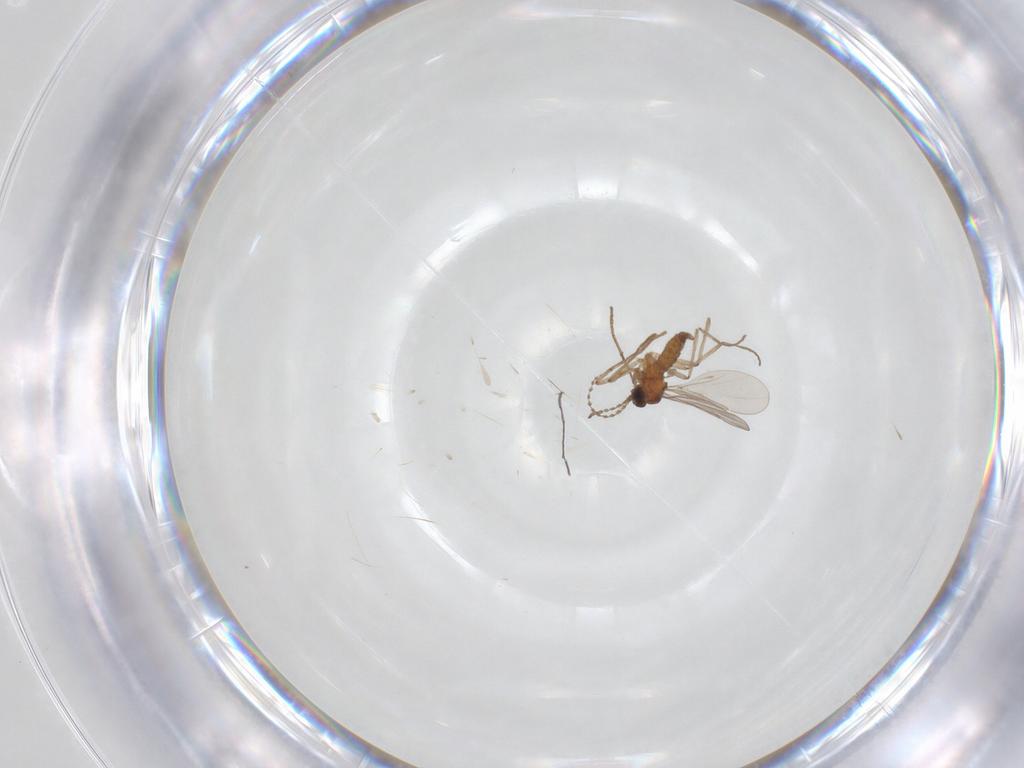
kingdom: Animalia
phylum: Arthropoda
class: Insecta
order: Diptera
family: Cecidomyiidae
